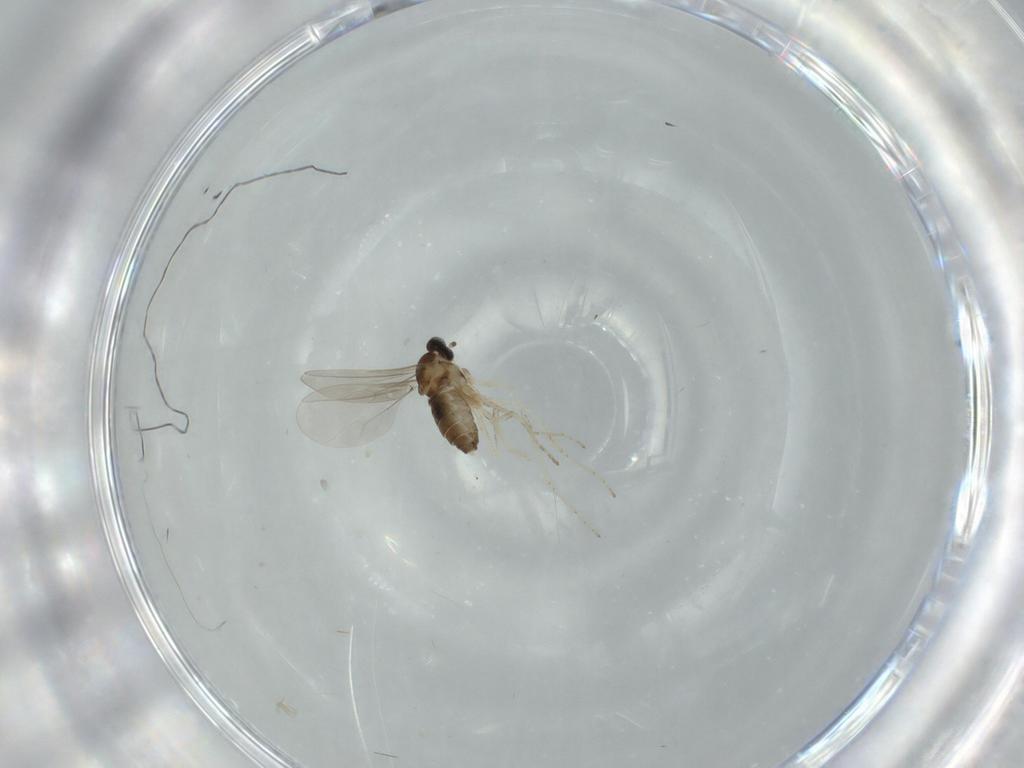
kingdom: Animalia
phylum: Arthropoda
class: Insecta
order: Diptera
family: Cecidomyiidae
